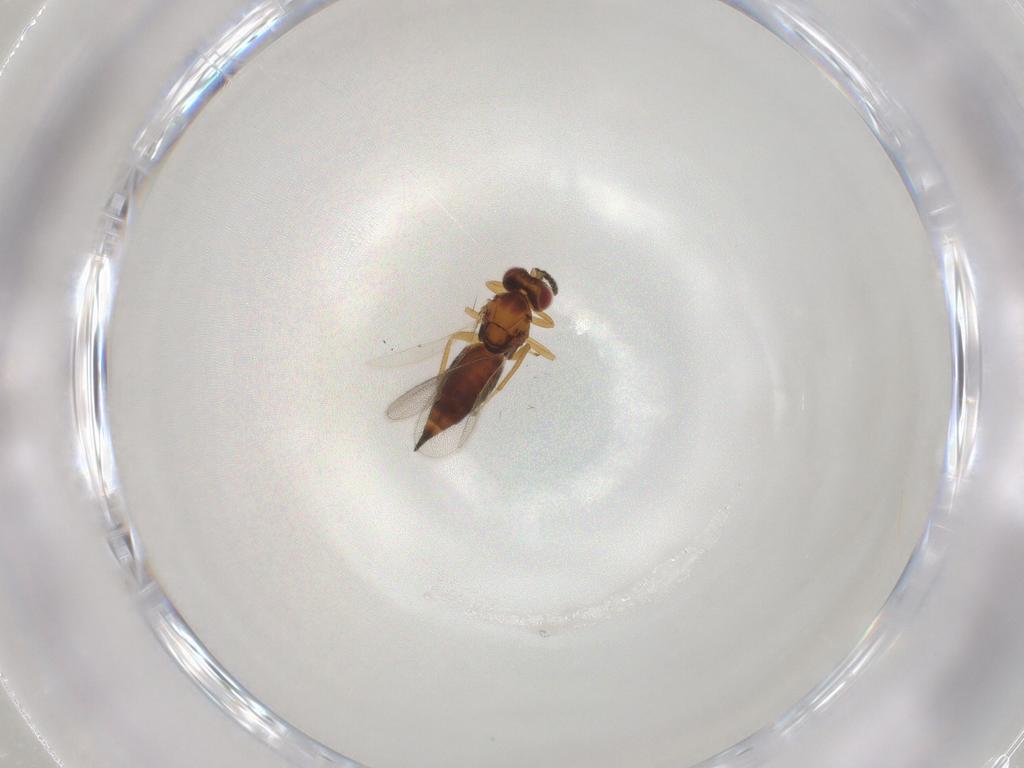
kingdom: Animalia
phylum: Arthropoda
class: Insecta
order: Hymenoptera
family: Eulophidae
